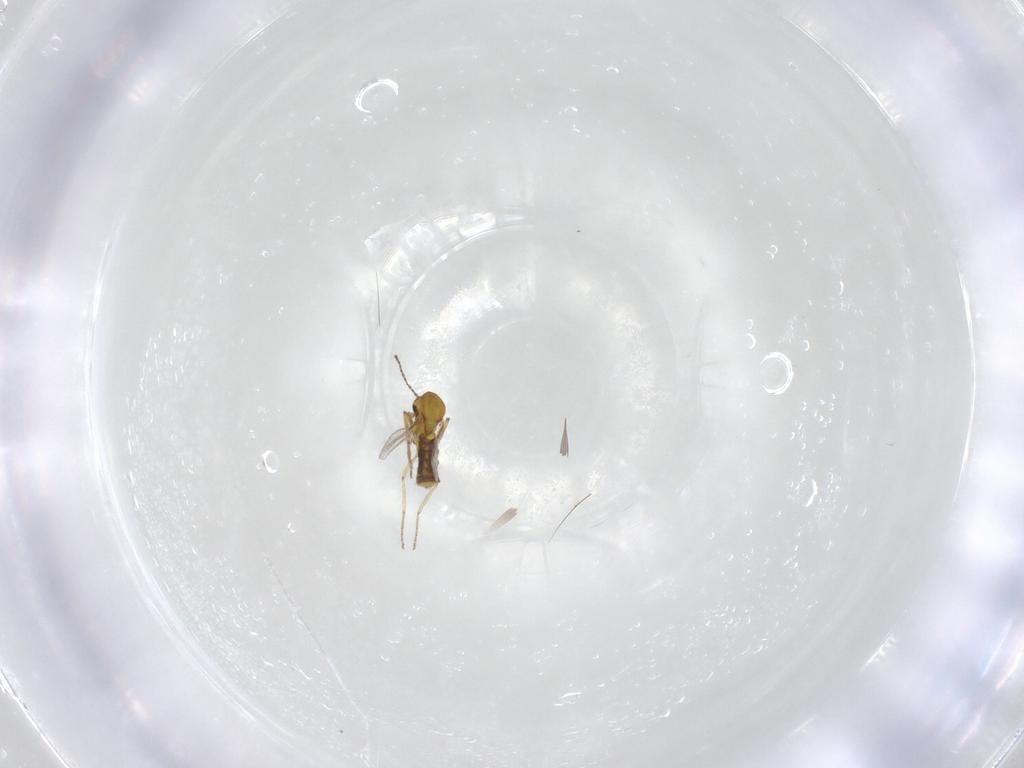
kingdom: Animalia
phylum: Arthropoda
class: Insecta
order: Diptera
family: Ceratopogonidae
